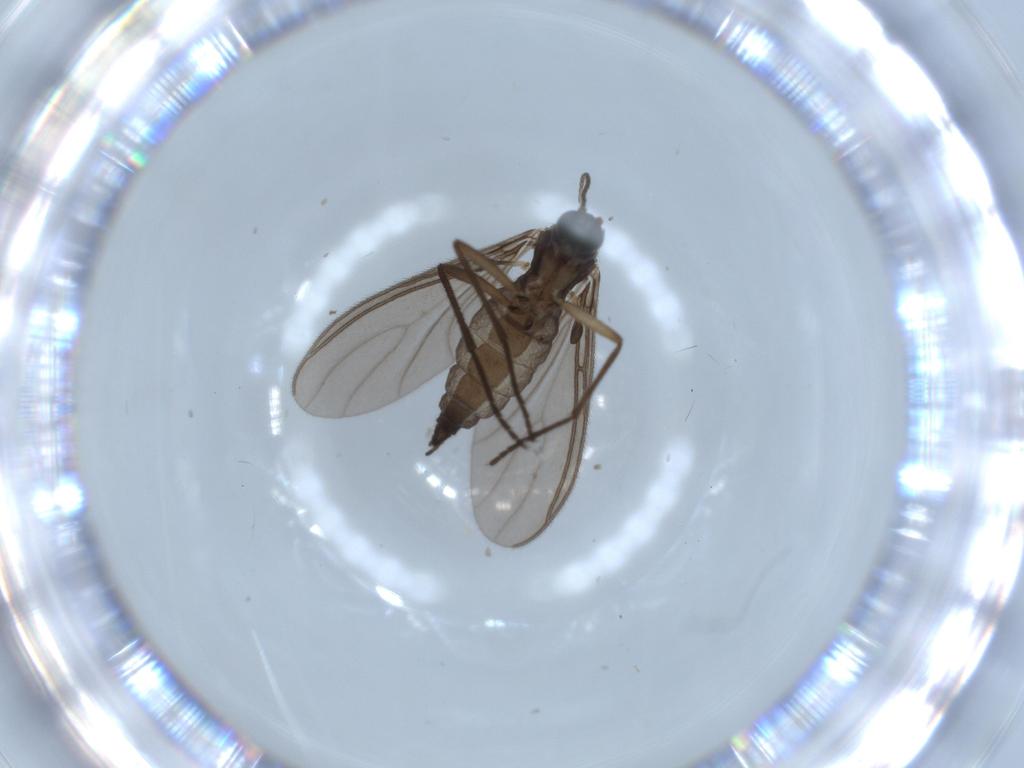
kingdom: Animalia
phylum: Arthropoda
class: Insecta
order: Diptera
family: Sciaridae
